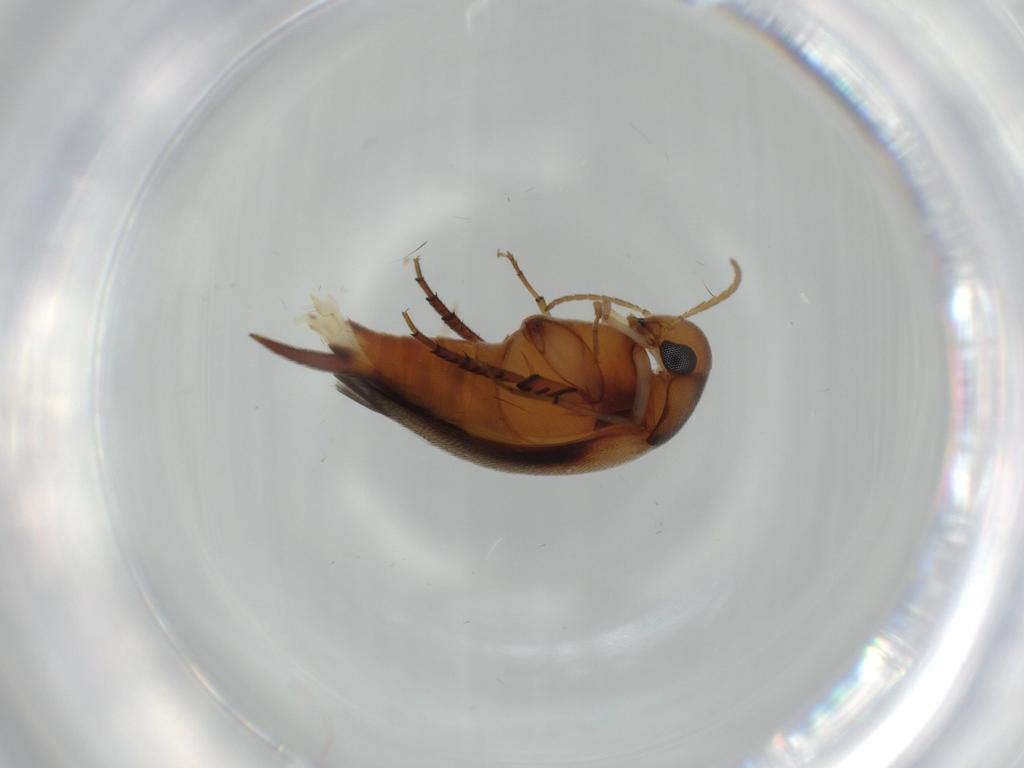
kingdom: Animalia
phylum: Arthropoda
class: Insecta
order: Coleoptera
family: Mordellidae
